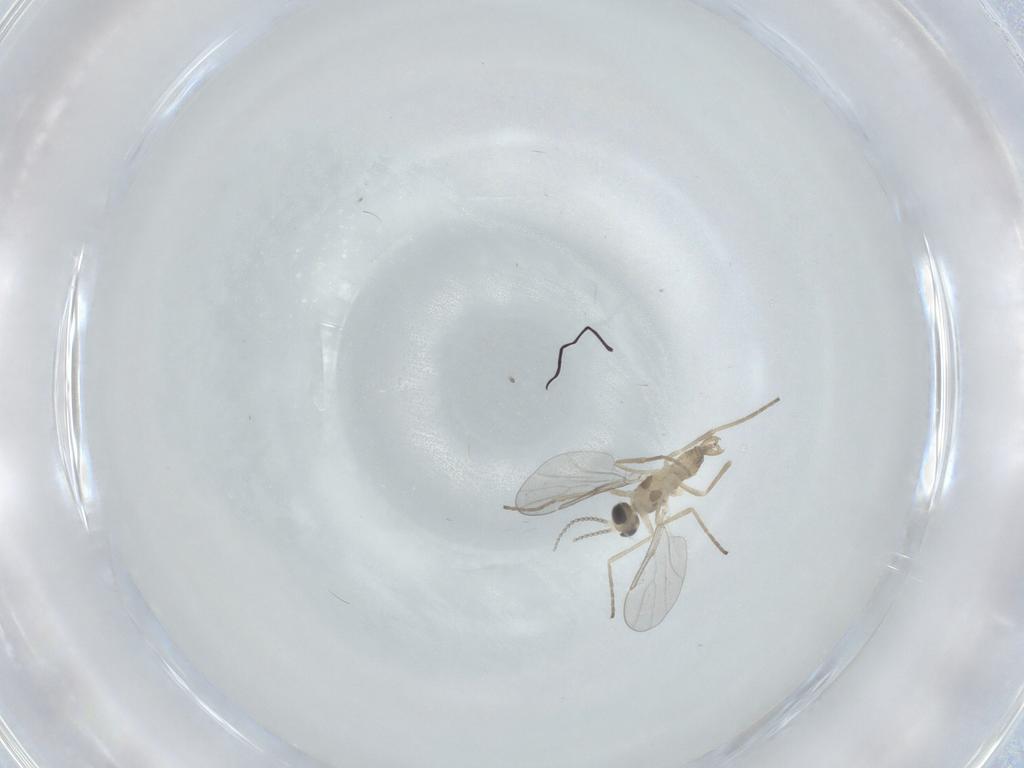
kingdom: Animalia
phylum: Arthropoda
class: Insecta
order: Diptera
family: Cecidomyiidae
